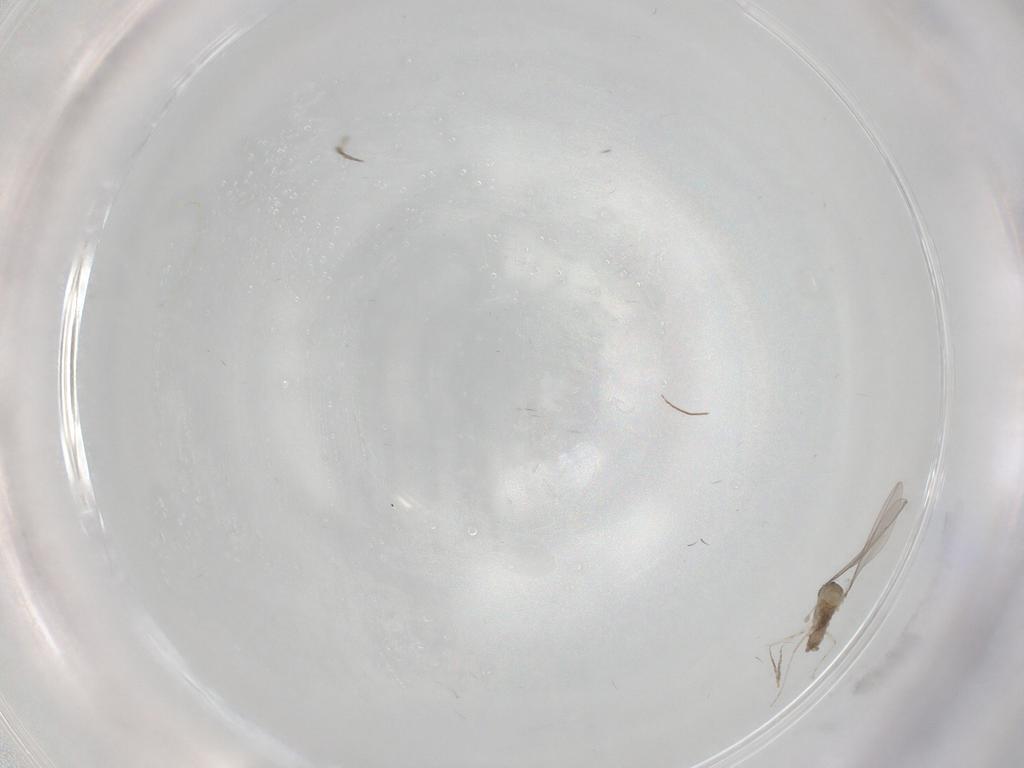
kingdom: Animalia
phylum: Arthropoda
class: Insecta
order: Diptera
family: Cecidomyiidae
